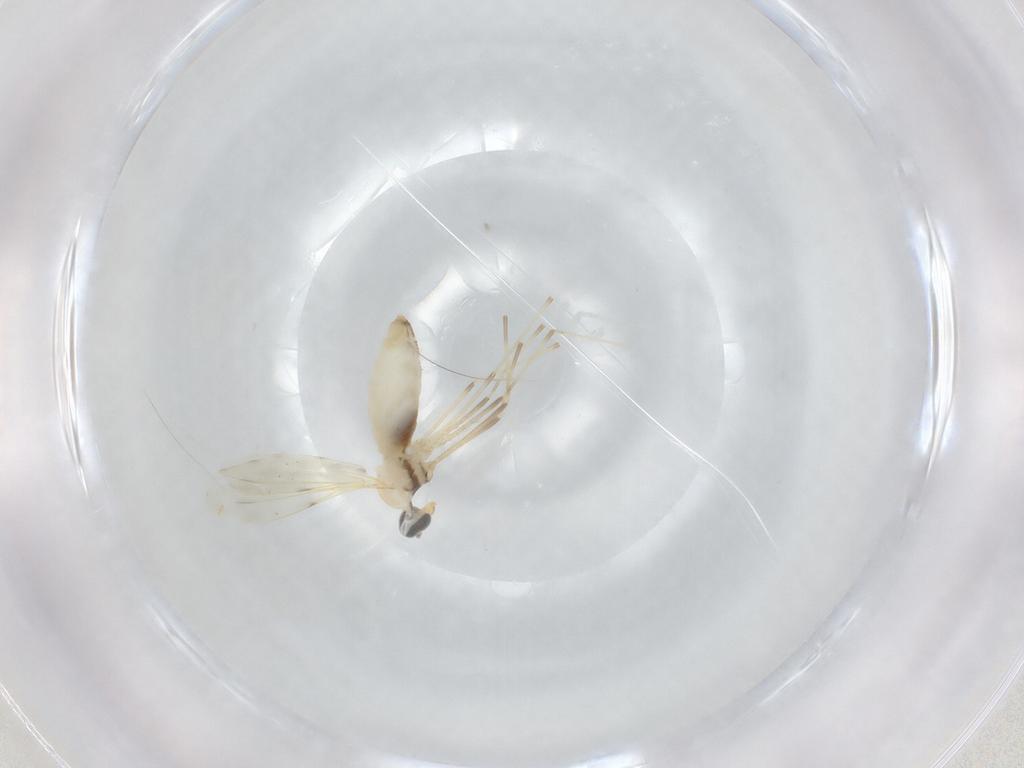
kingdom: Animalia
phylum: Arthropoda
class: Insecta
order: Diptera
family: Cecidomyiidae
